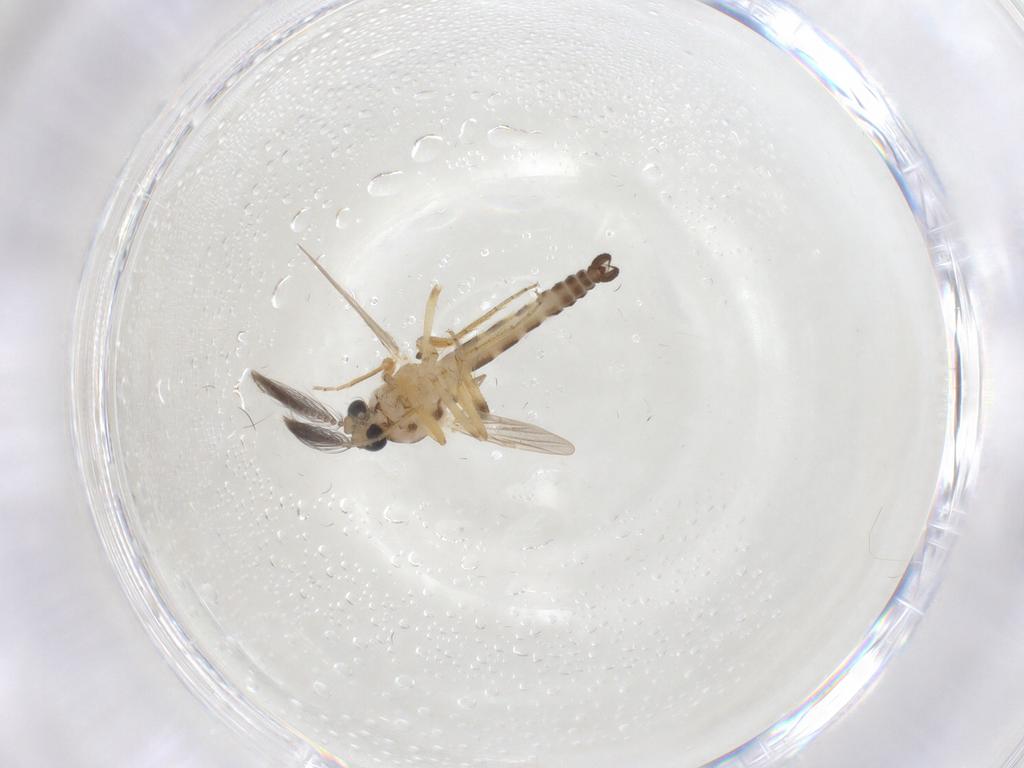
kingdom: Animalia
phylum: Arthropoda
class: Insecta
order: Diptera
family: Ceratopogonidae
